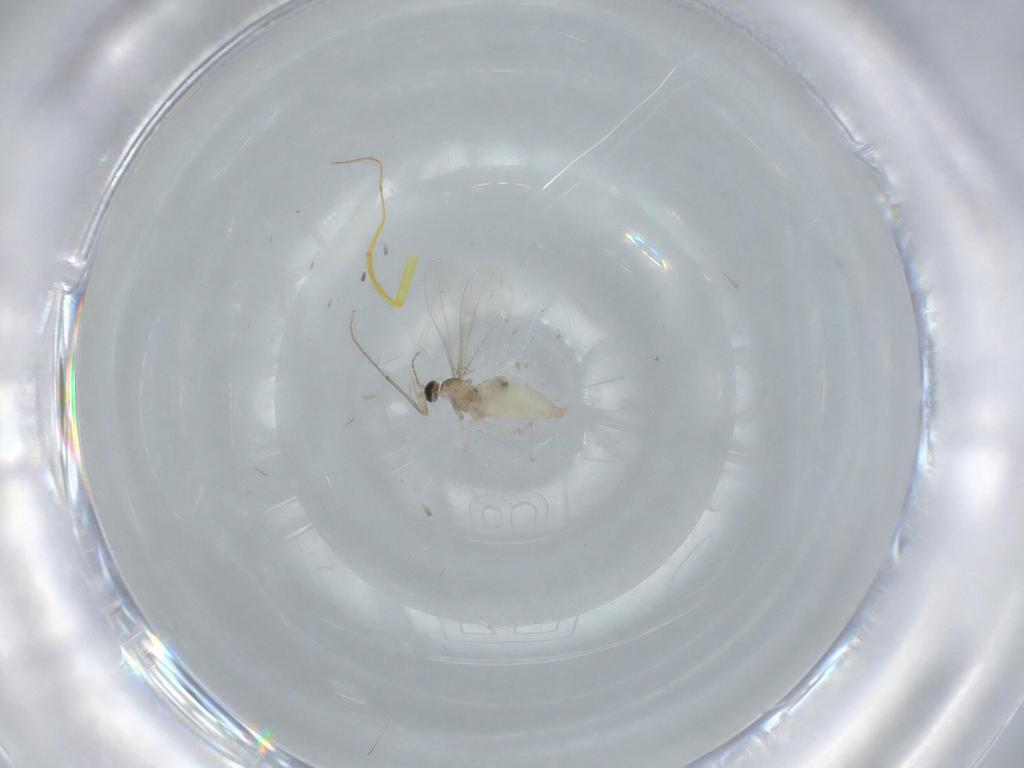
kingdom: Animalia
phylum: Arthropoda
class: Insecta
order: Diptera
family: Cecidomyiidae
